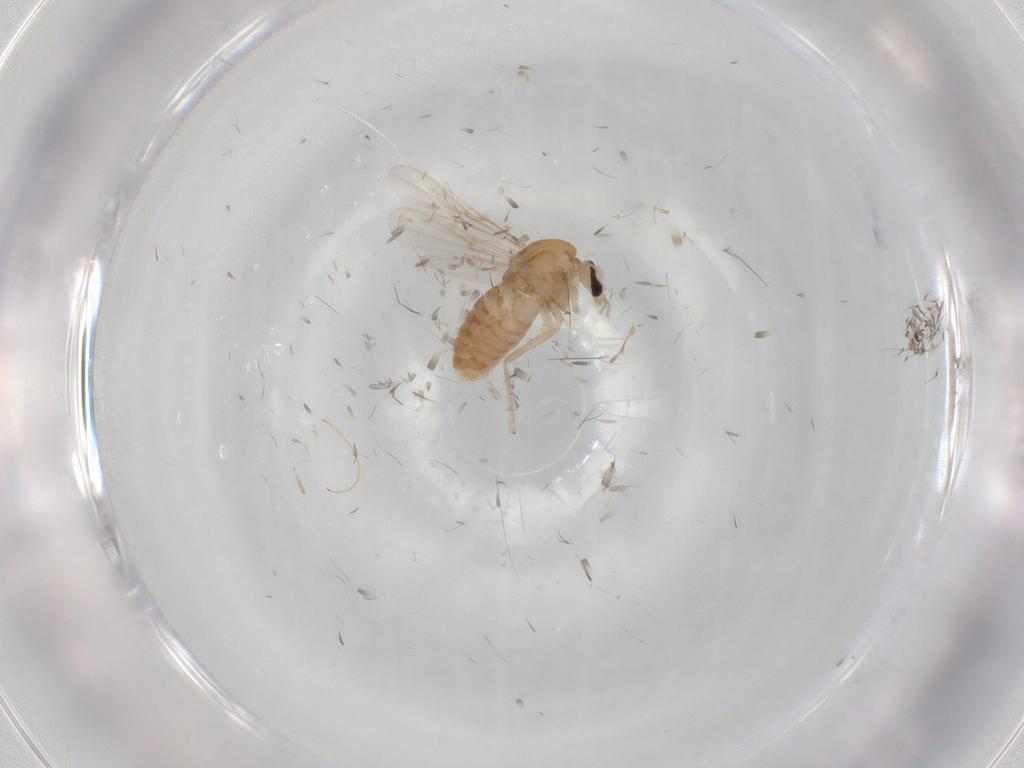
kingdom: Animalia
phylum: Arthropoda
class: Insecta
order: Diptera
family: Chironomidae
